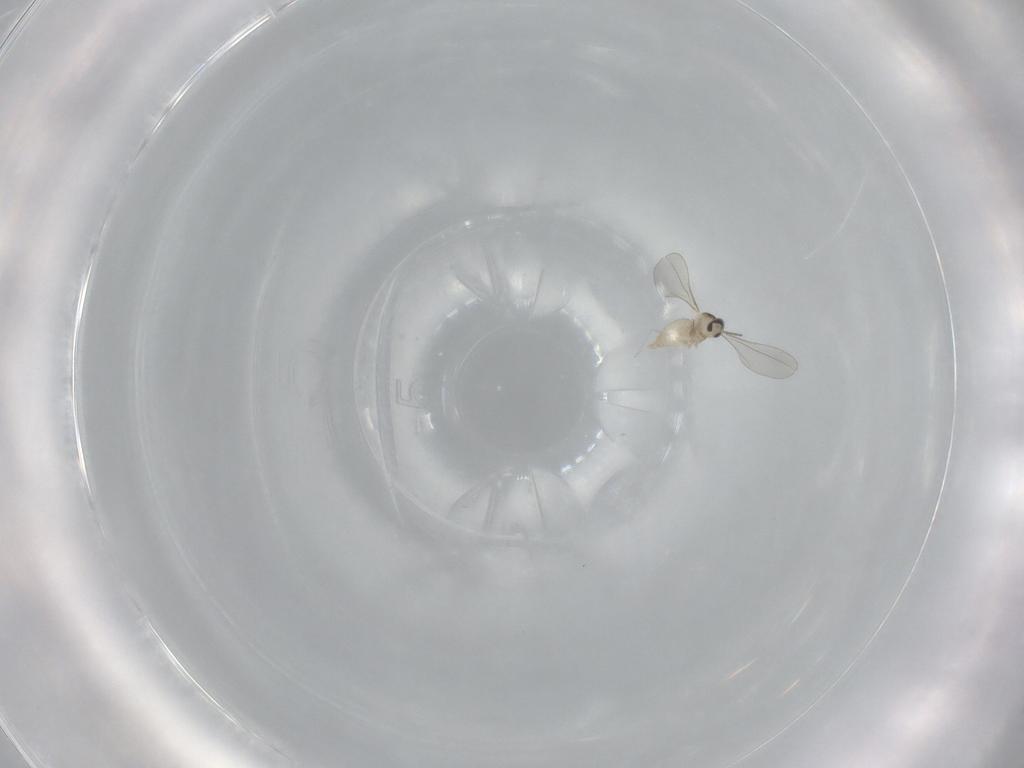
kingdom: Animalia
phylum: Arthropoda
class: Insecta
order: Diptera
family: Cecidomyiidae
